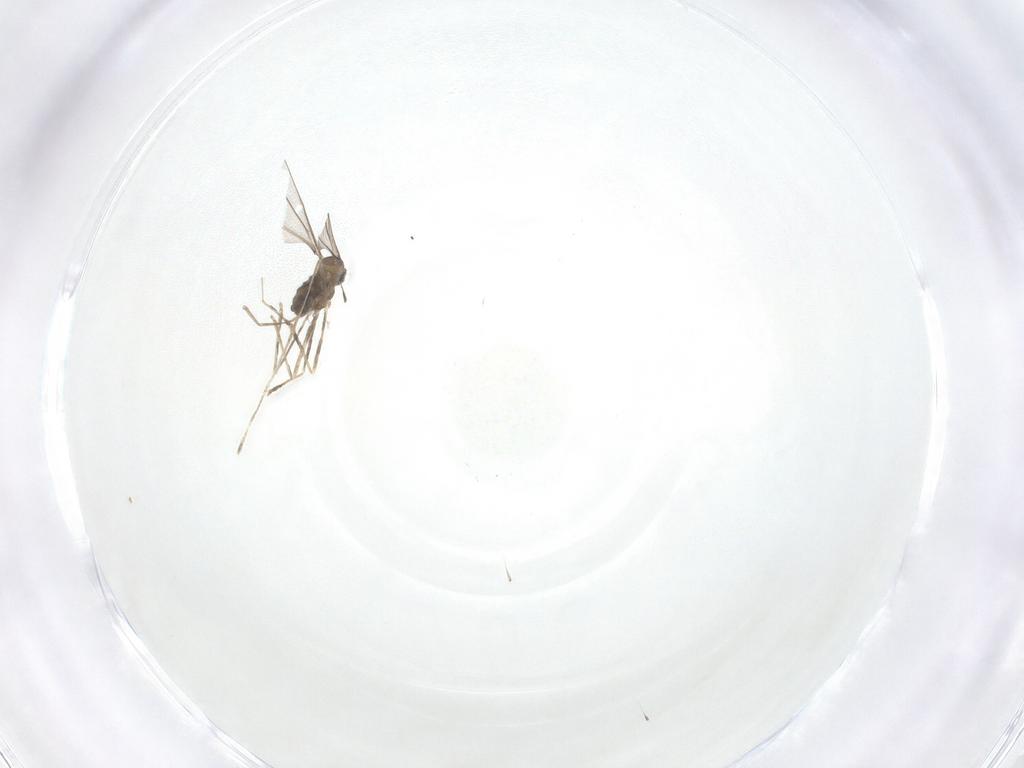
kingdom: Animalia
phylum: Arthropoda
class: Insecta
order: Diptera
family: Cecidomyiidae
